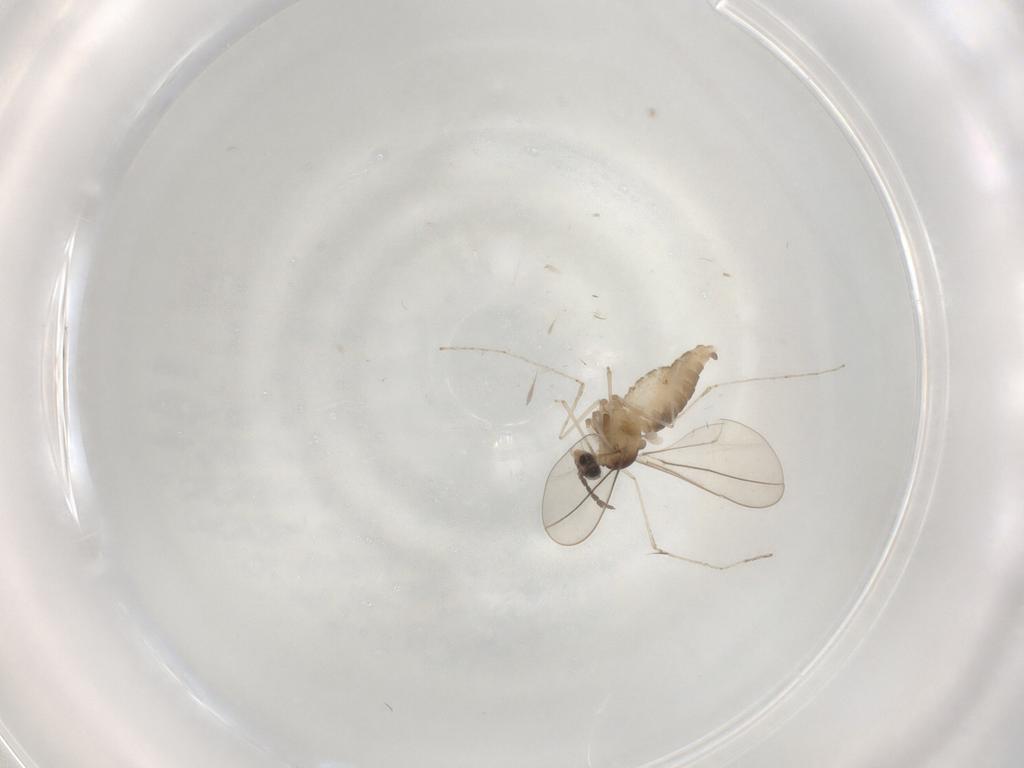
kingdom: Animalia
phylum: Arthropoda
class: Insecta
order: Diptera
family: Cecidomyiidae
